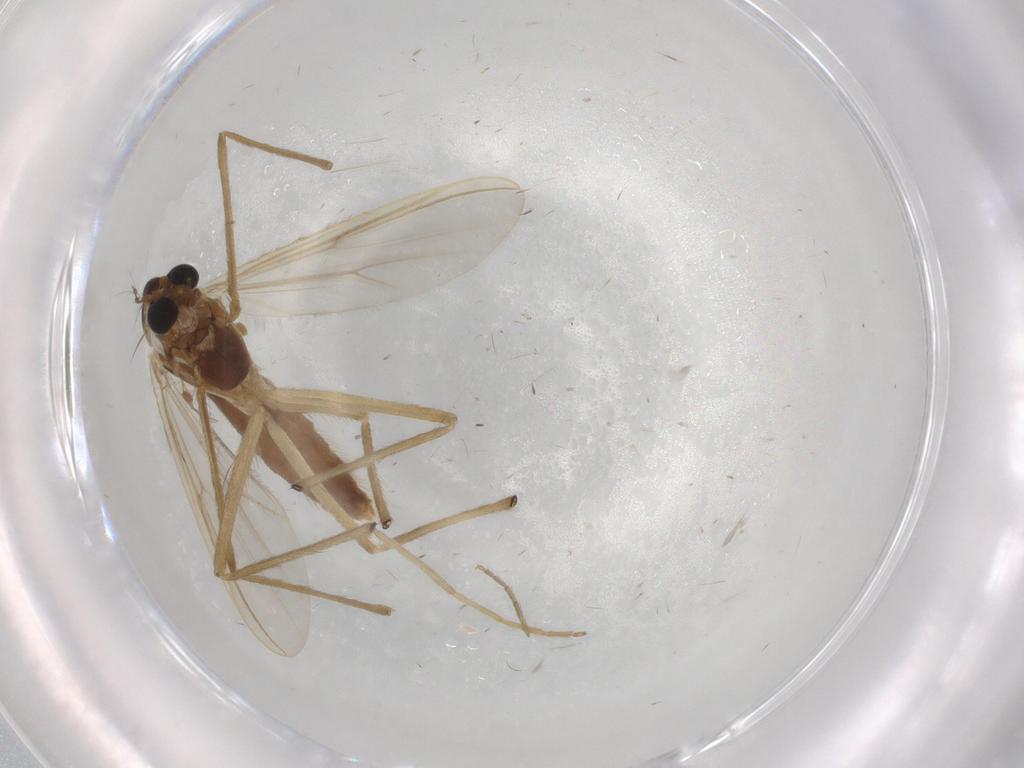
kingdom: Animalia
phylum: Arthropoda
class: Insecta
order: Diptera
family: Chironomidae
